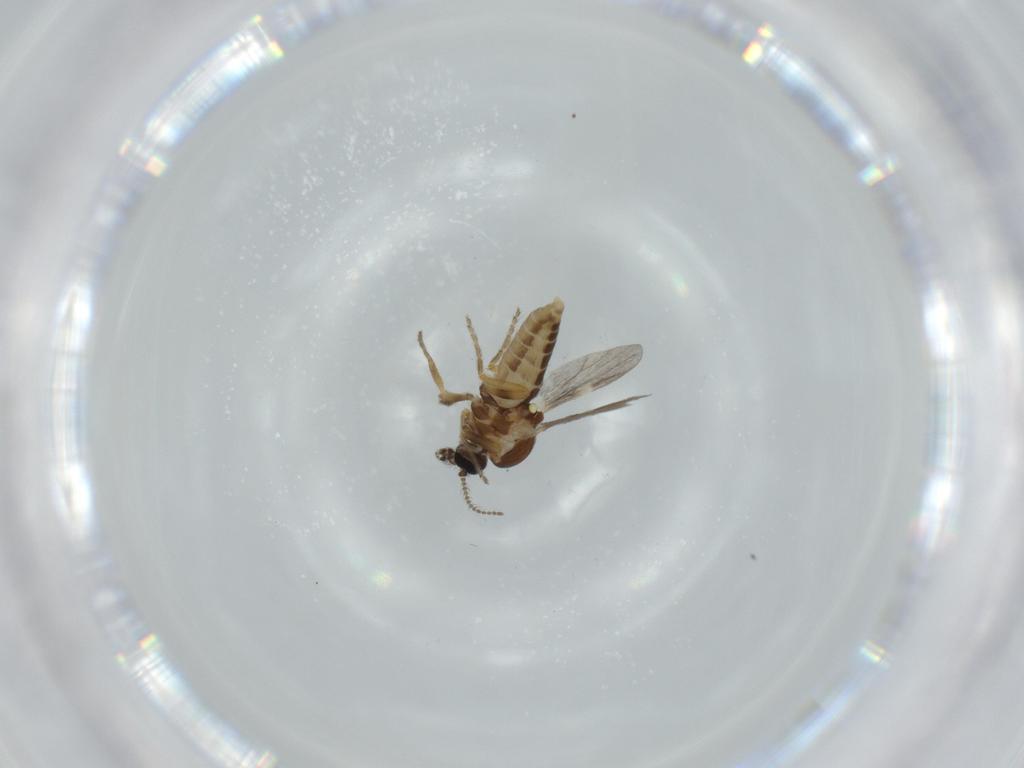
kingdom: Animalia
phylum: Arthropoda
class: Insecta
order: Diptera
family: Ceratopogonidae
